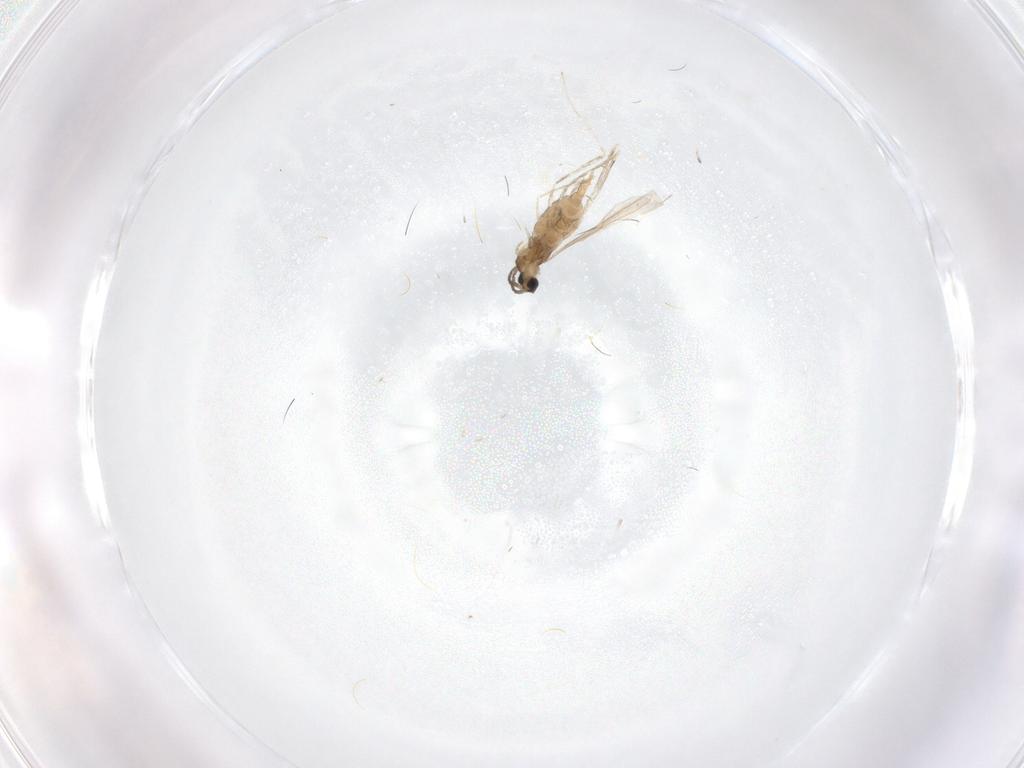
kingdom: Animalia
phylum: Arthropoda
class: Insecta
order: Diptera
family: Cecidomyiidae
